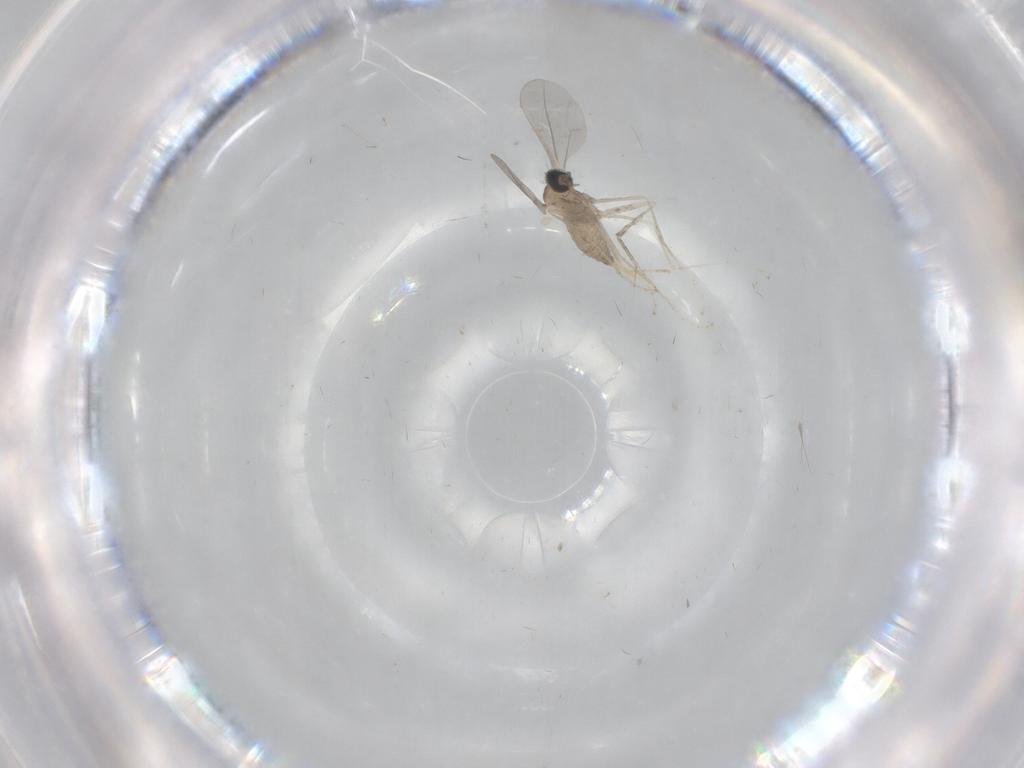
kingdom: Animalia
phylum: Arthropoda
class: Insecta
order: Diptera
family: Cecidomyiidae
